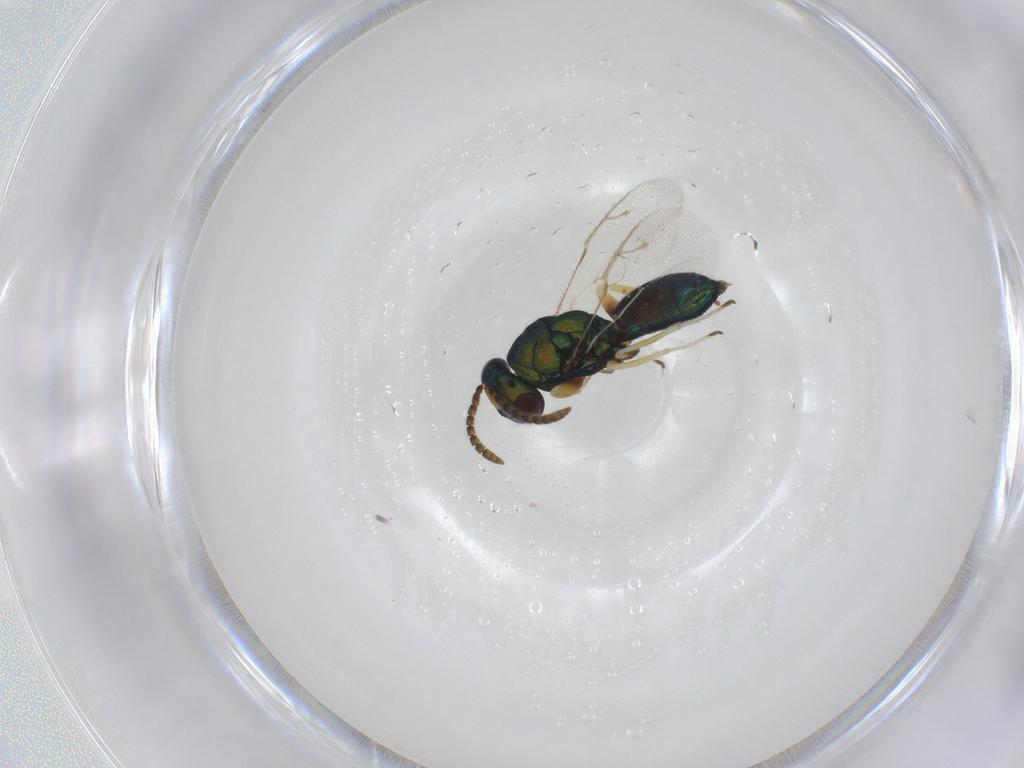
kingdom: Animalia
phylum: Arthropoda
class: Insecta
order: Hymenoptera
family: Pteromalidae
